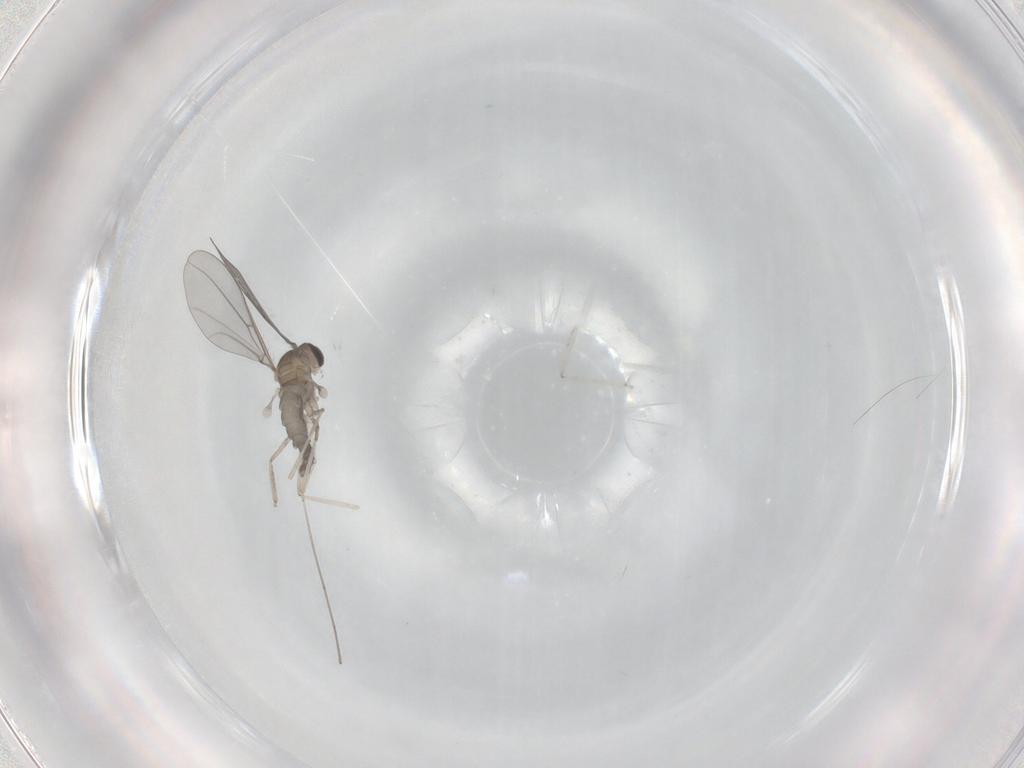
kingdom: Animalia
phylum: Arthropoda
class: Insecta
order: Diptera
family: Cecidomyiidae
